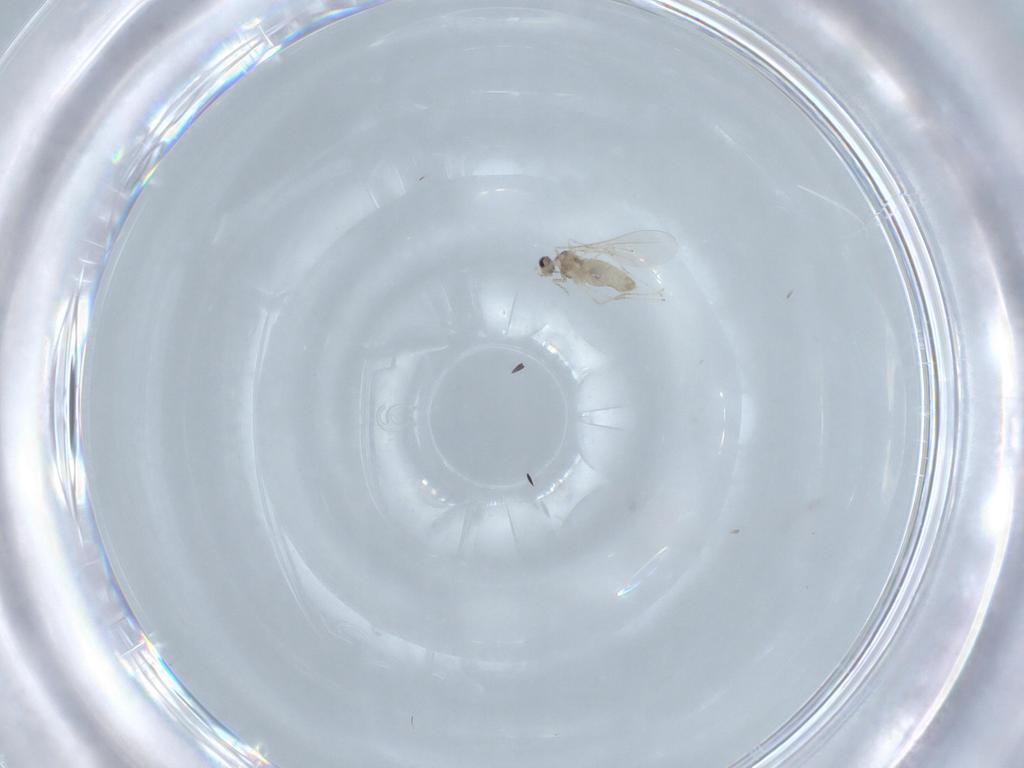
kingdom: Animalia
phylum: Arthropoda
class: Insecta
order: Diptera
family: Cecidomyiidae
